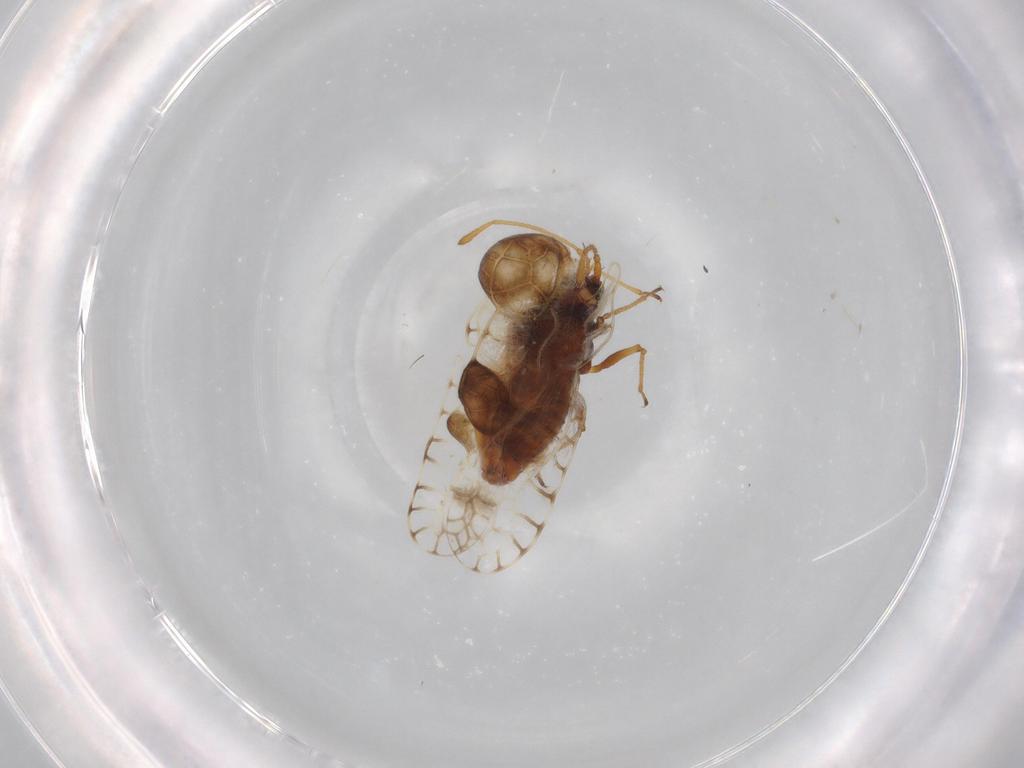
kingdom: Animalia
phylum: Arthropoda
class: Insecta
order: Hemiptera
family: Tingidae
